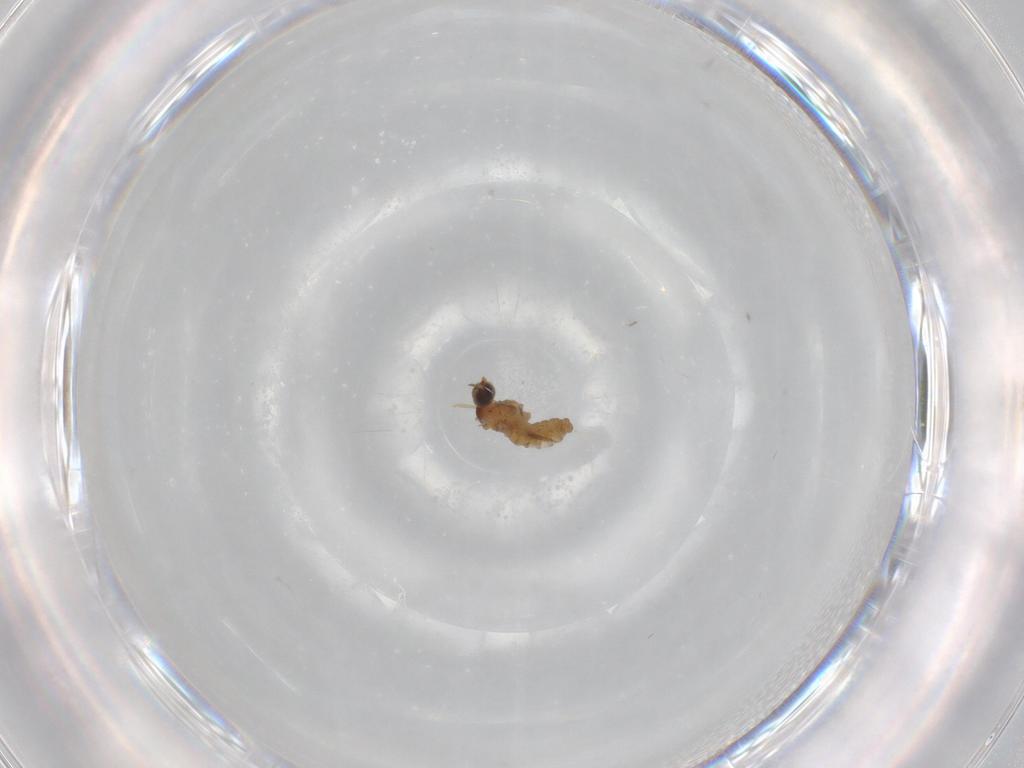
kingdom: Animalia
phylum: Arthropoda
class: Insecta
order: Diptera
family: Cecidomyiidae
